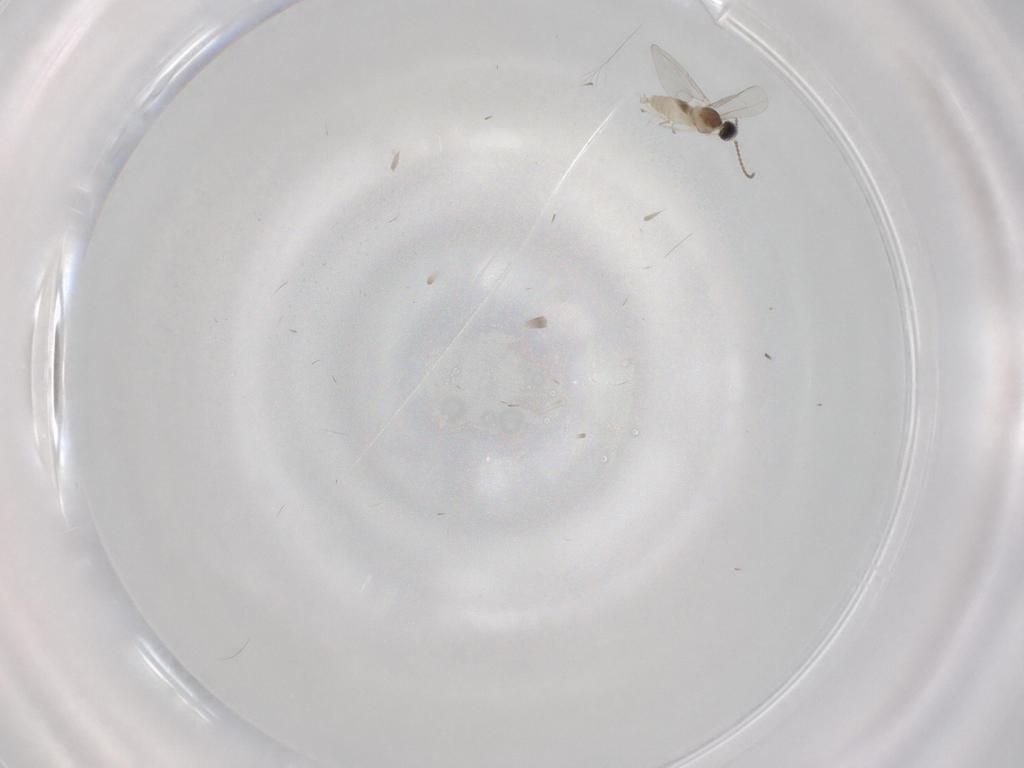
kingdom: Animalia
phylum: Arthropoda
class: Insecta
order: Diptera
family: Cecidomyiidae
